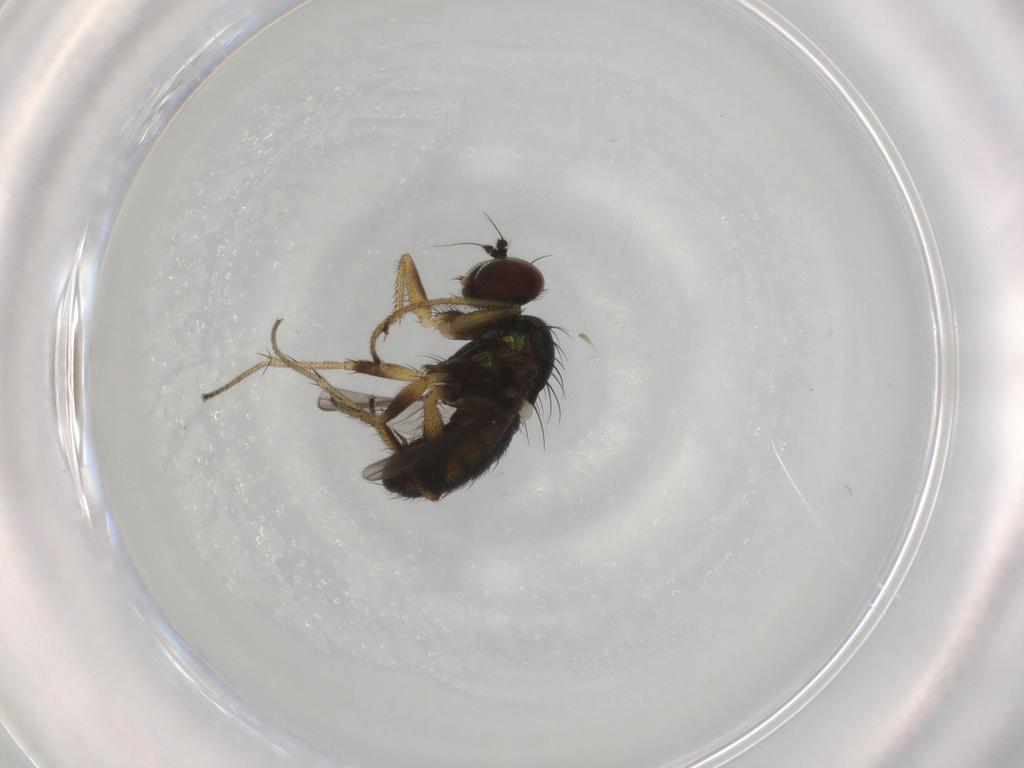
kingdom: Animalia
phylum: Arthropoda
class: Insecta
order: Diptera
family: Dolichopodidae
